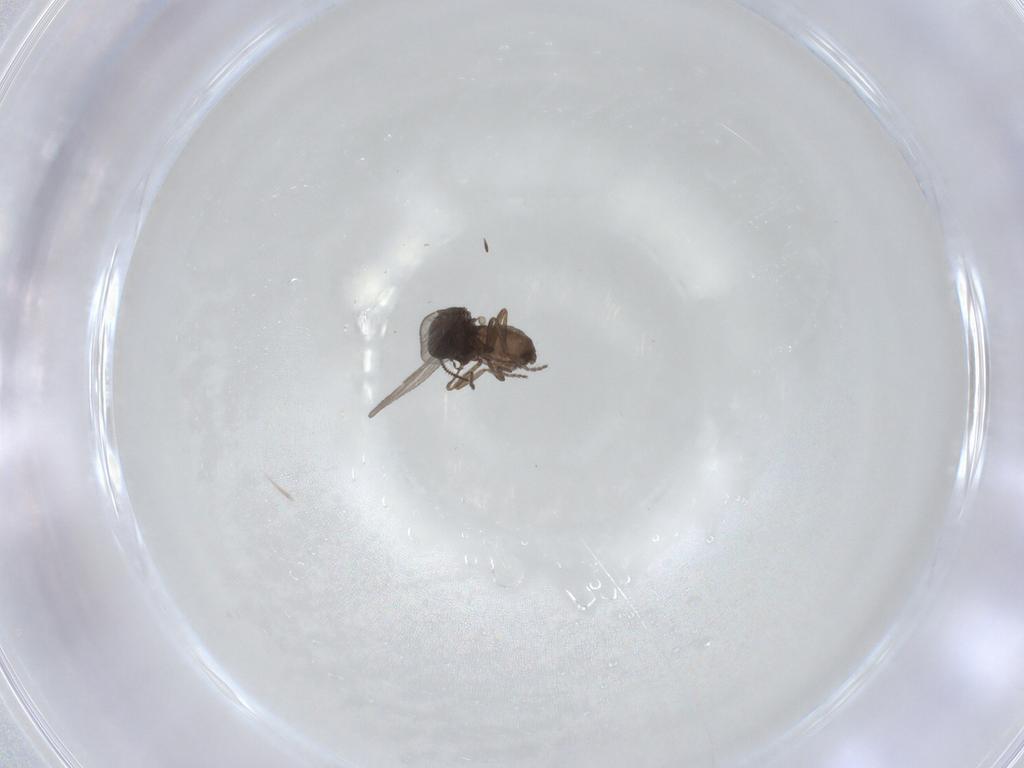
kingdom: Animalia
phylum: Arthropoda
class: Insecta
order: Diptera
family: Ceratopogonidae
